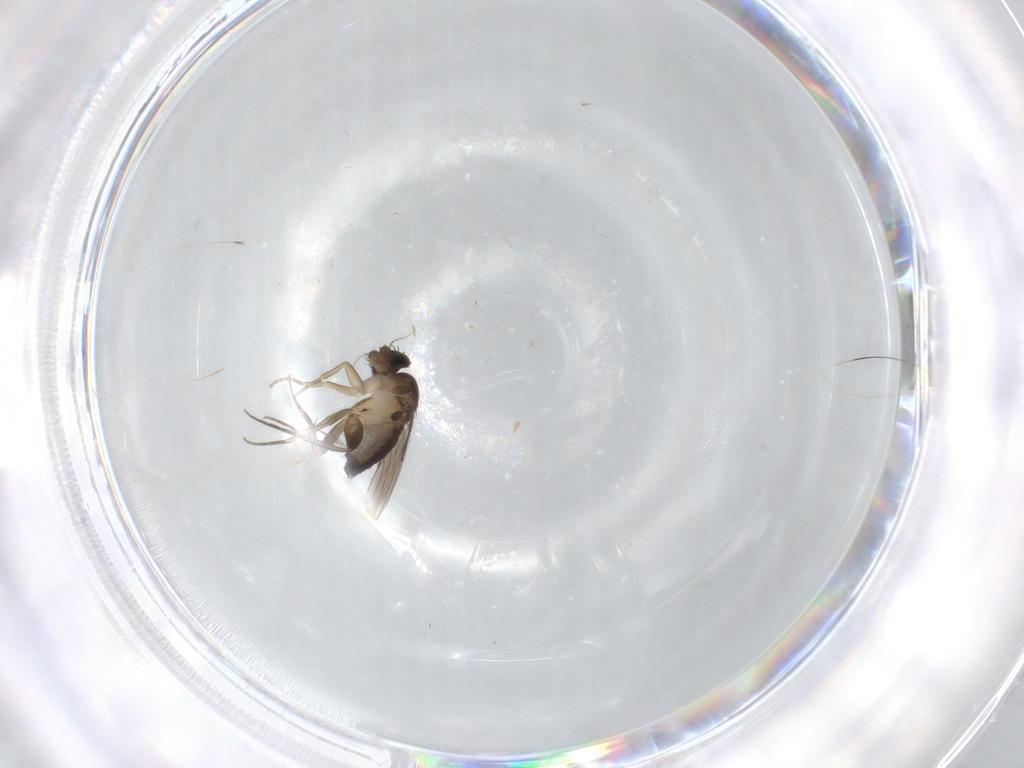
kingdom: Animalia
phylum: Arthropoda
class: Insecta
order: Diptera
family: Phoridae
